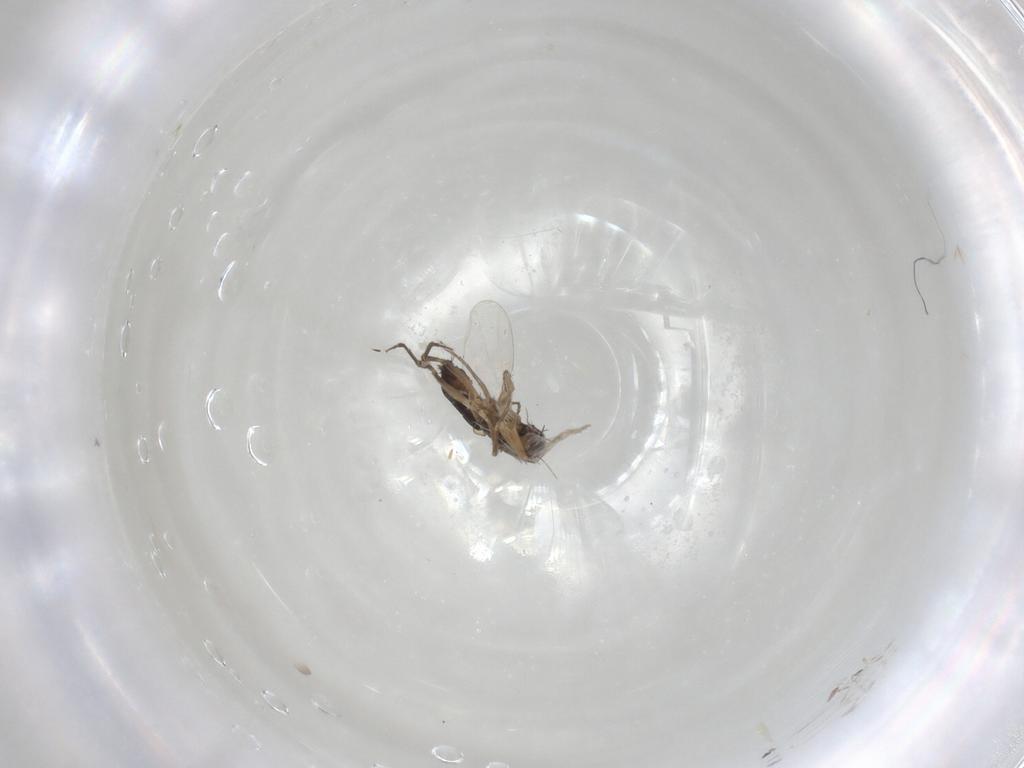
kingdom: Animalia
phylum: Arthropoda
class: Insecta
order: Diptera
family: Phoridae
